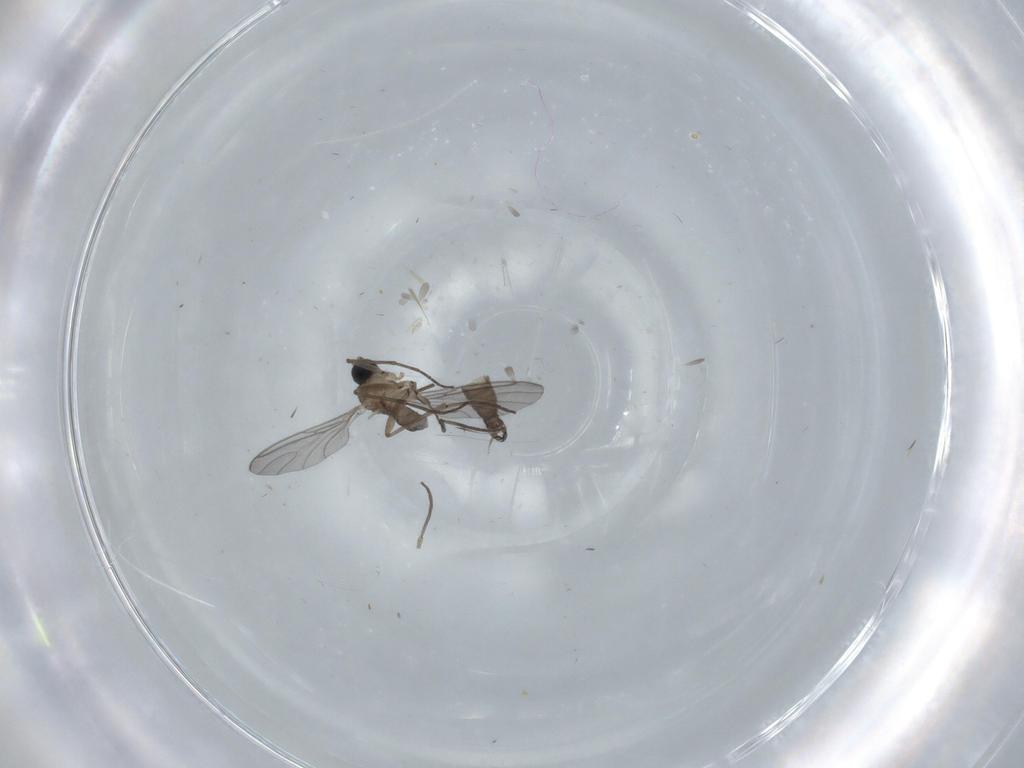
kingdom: Animalia
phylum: Arthropoda
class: Insecta
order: Diptera
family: Sciaridae
